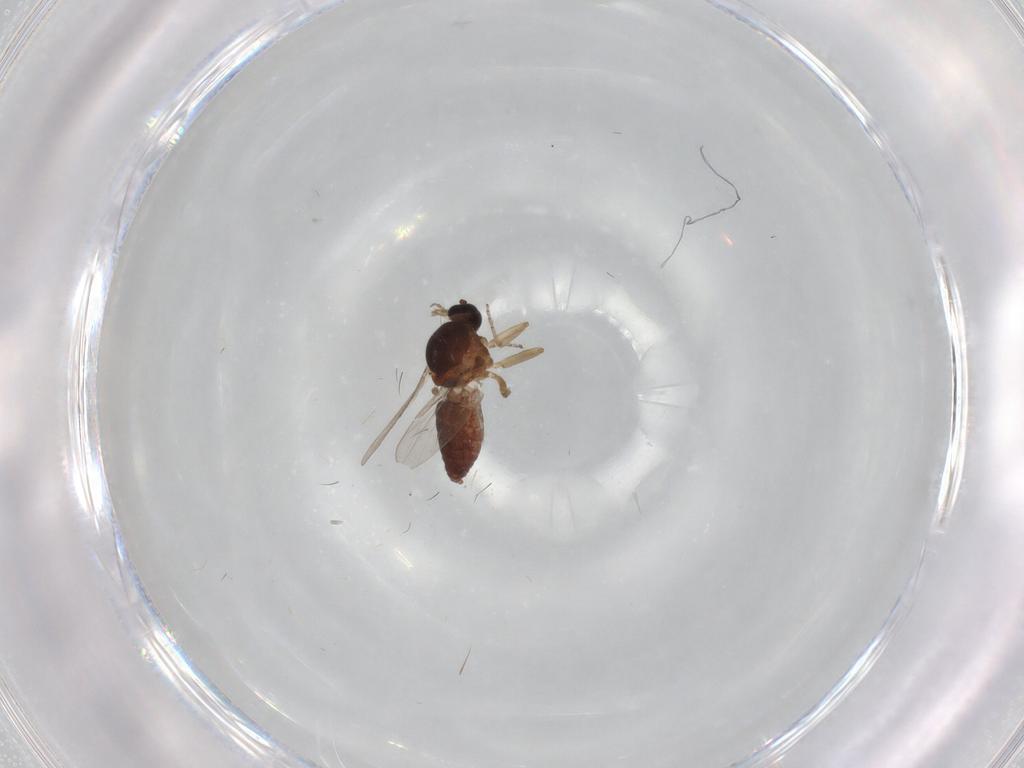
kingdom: Animalia
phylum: Arthropoda
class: Insecta
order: Diptera
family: Ceratopogonidae
